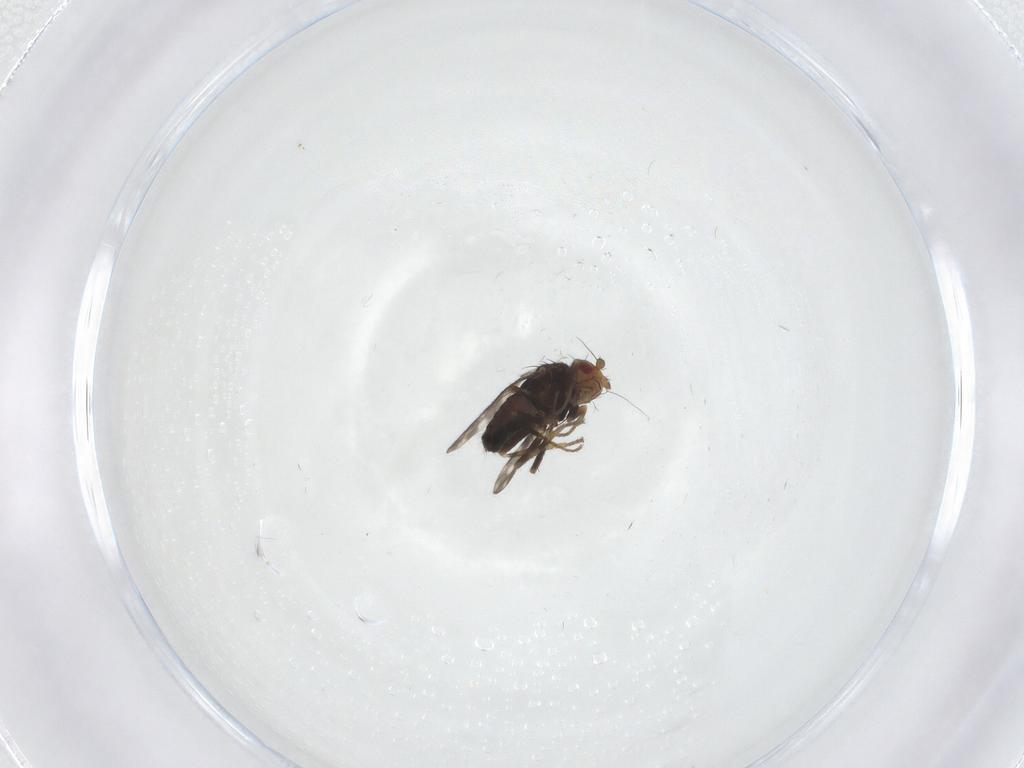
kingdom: Animalia
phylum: Arthropoda
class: Insecta
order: Diptera
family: Sphaeroceridae
